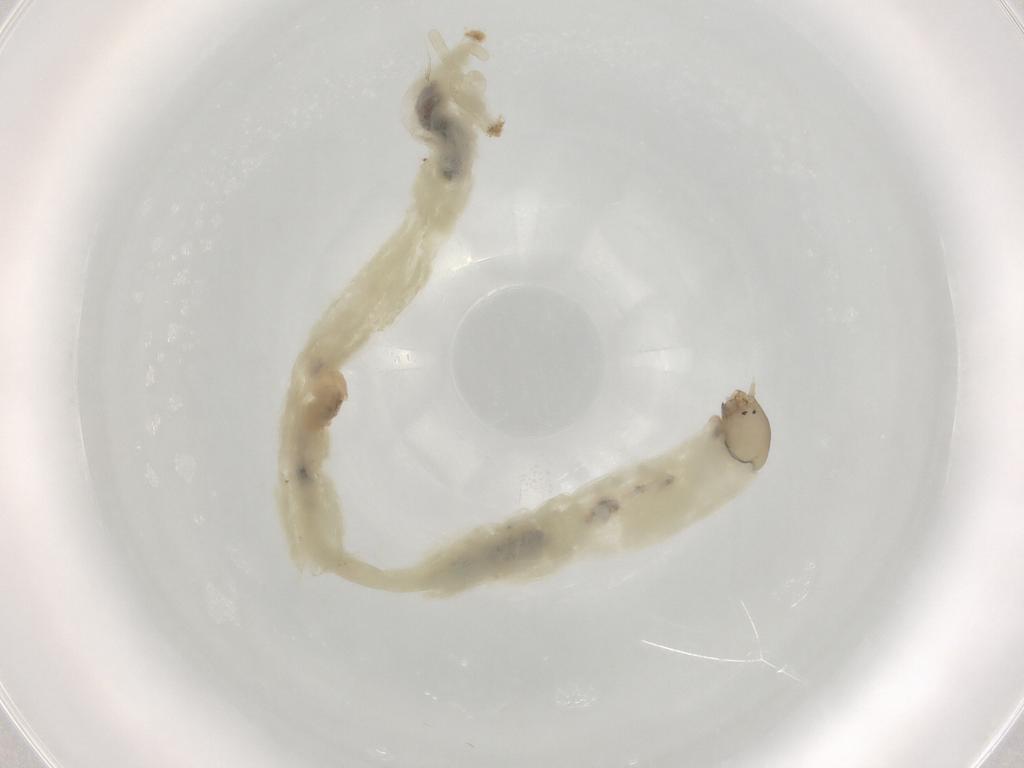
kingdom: Animalia
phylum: Arthropoda
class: Insecta
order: Diptera
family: Chironomidae
